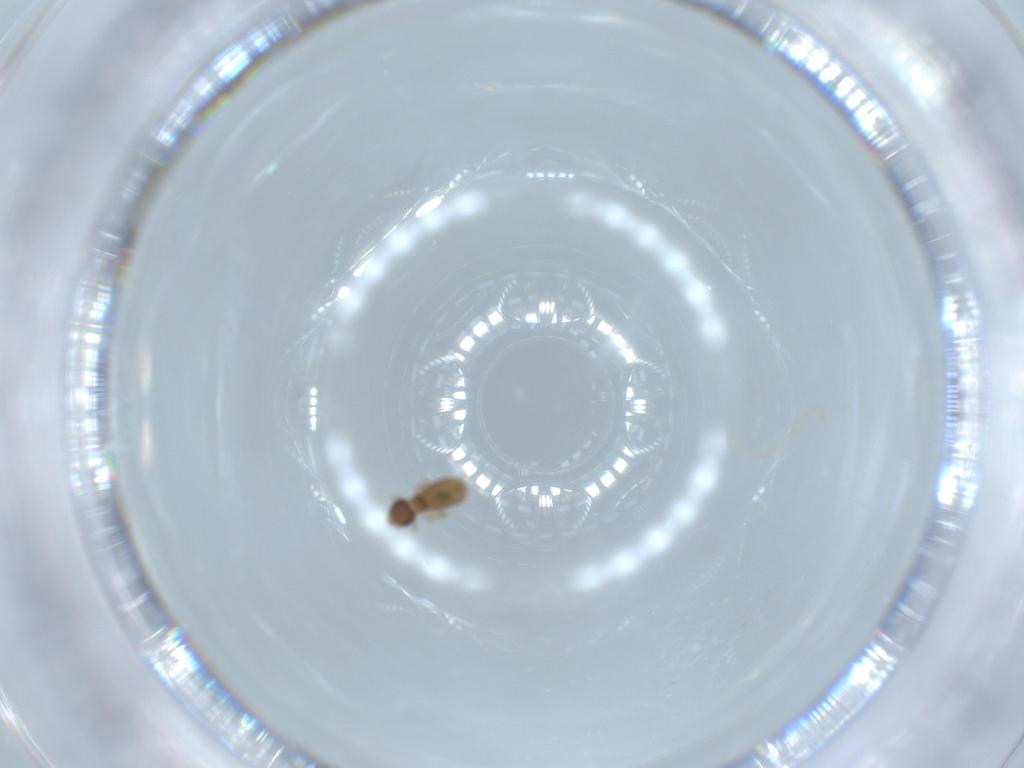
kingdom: Animalia
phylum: Arthropoda
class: Insecta
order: Psocodea
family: Liposcelididae
